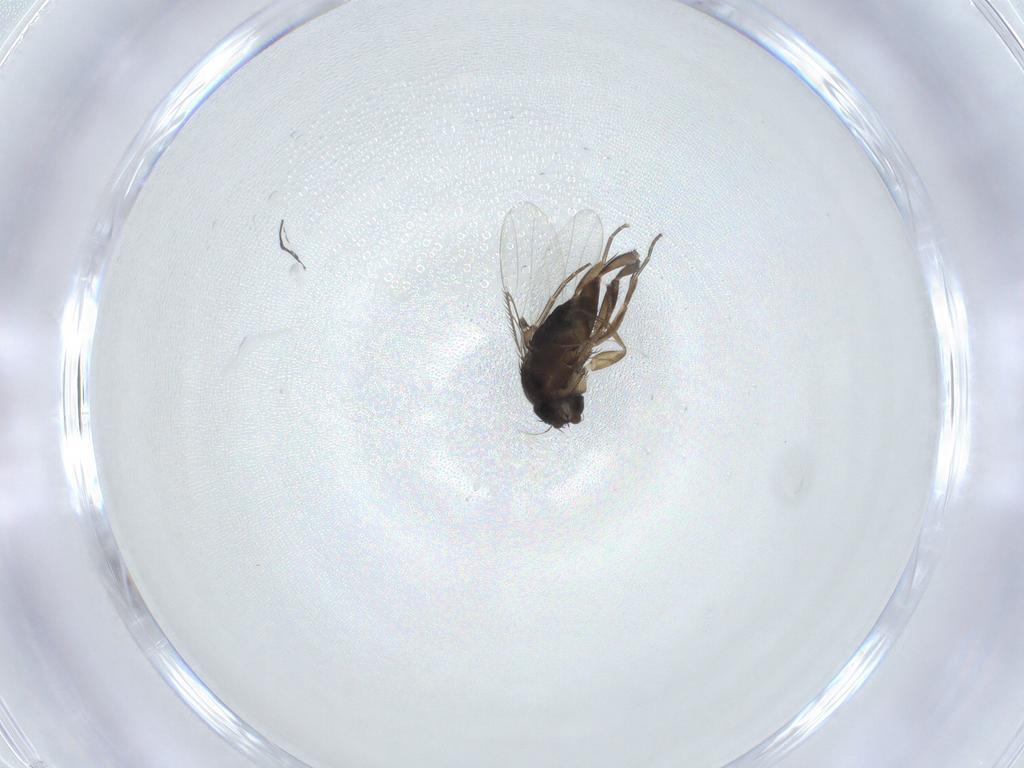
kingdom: Animalia
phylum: Arthropoda
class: Insecta
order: Diptera
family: Phoridae
